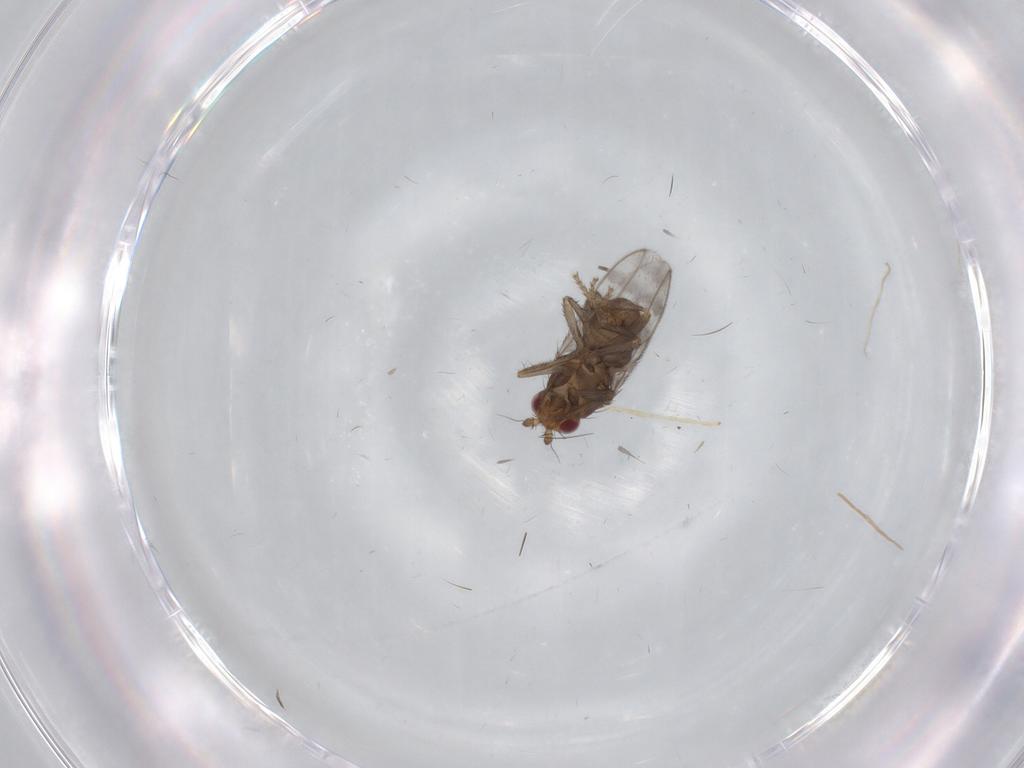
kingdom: Animalia
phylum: Arthropoda
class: Insecta
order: Diptera
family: Sphaeroceridae
